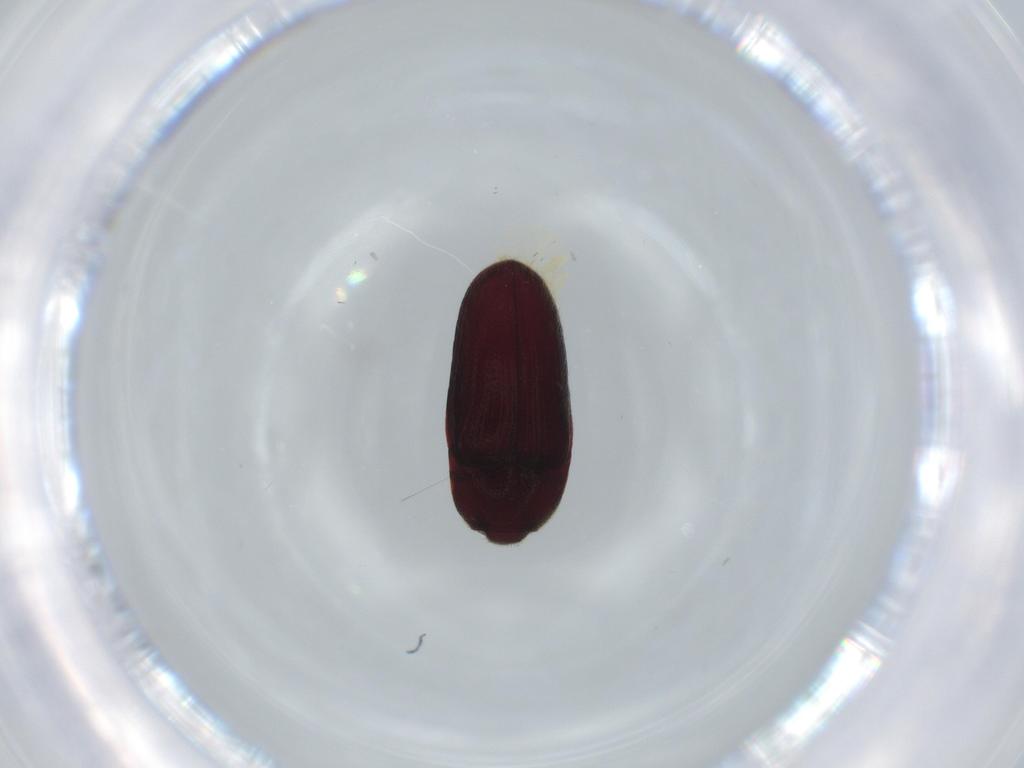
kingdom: Animalia
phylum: Arthropoda
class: Insecta
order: Coleoptera
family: Throscidae
